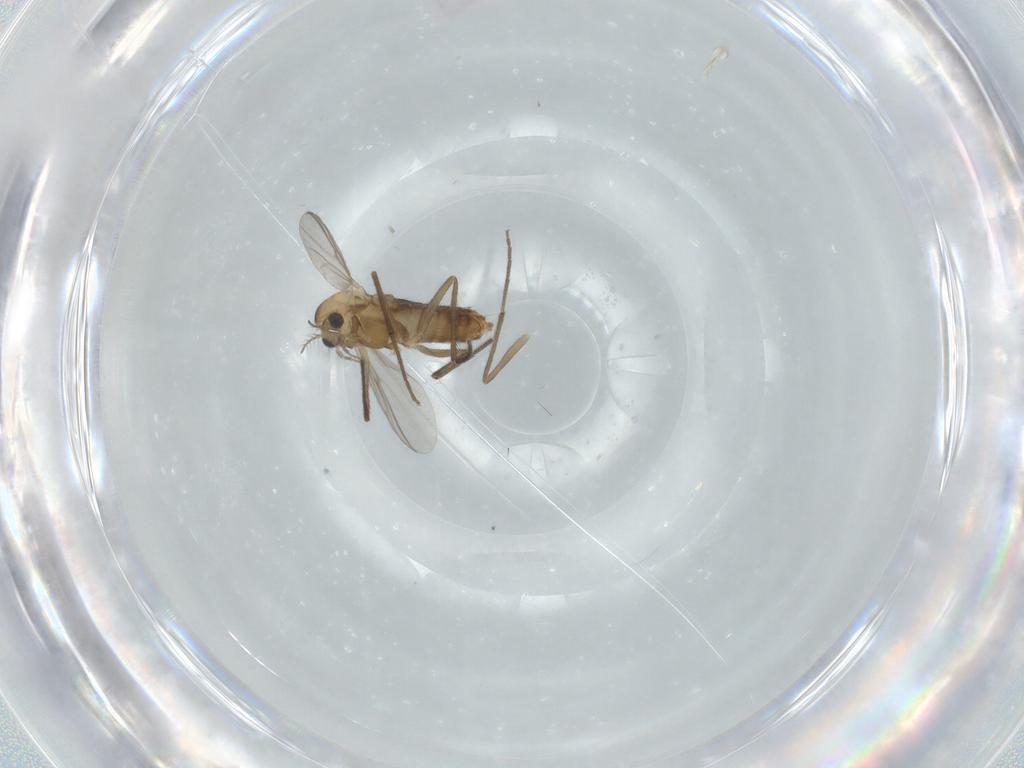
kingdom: Animalia
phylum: Arthropoda
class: Insecta
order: Diptera
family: Chironomidae
